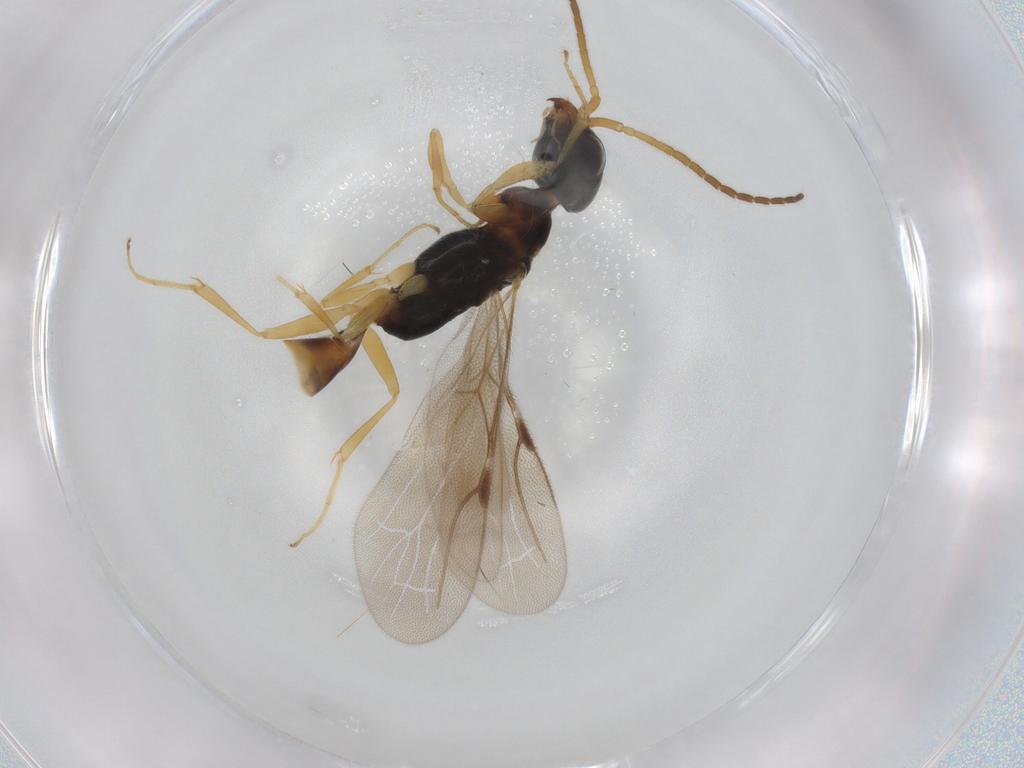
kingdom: Animalia
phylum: Arthropoda
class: Insecta
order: Hymenoptera
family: Bethylidae
